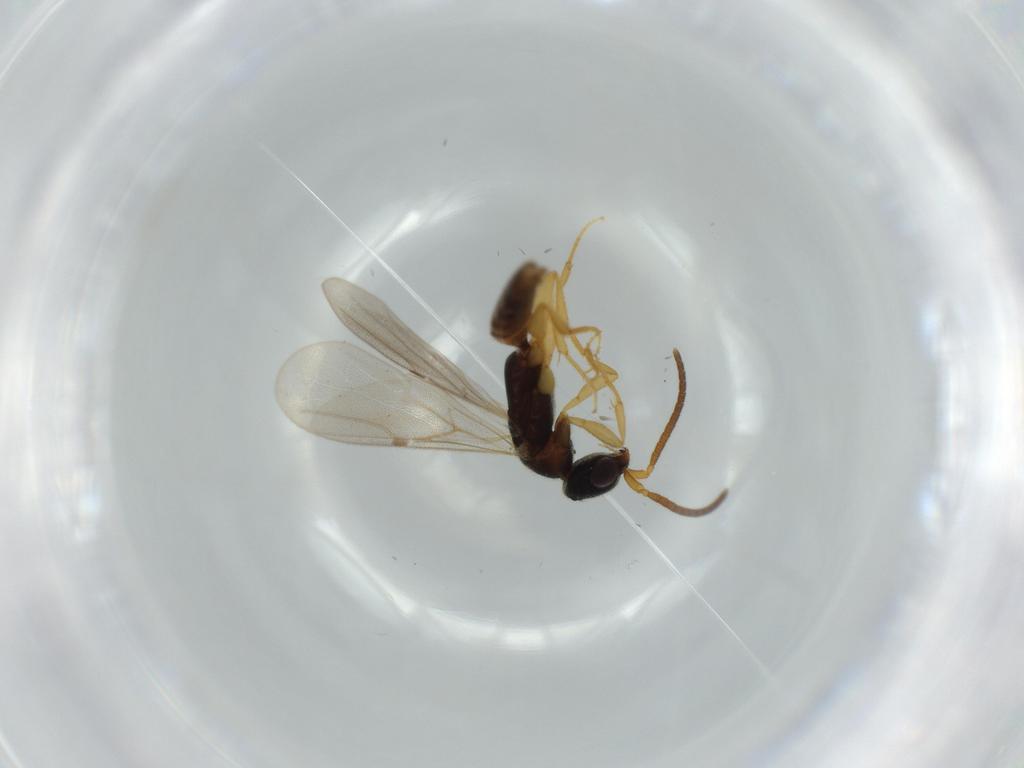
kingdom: Animalia
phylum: Arthropoda
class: Insecta
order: Hymenoptera
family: Bethylidae
